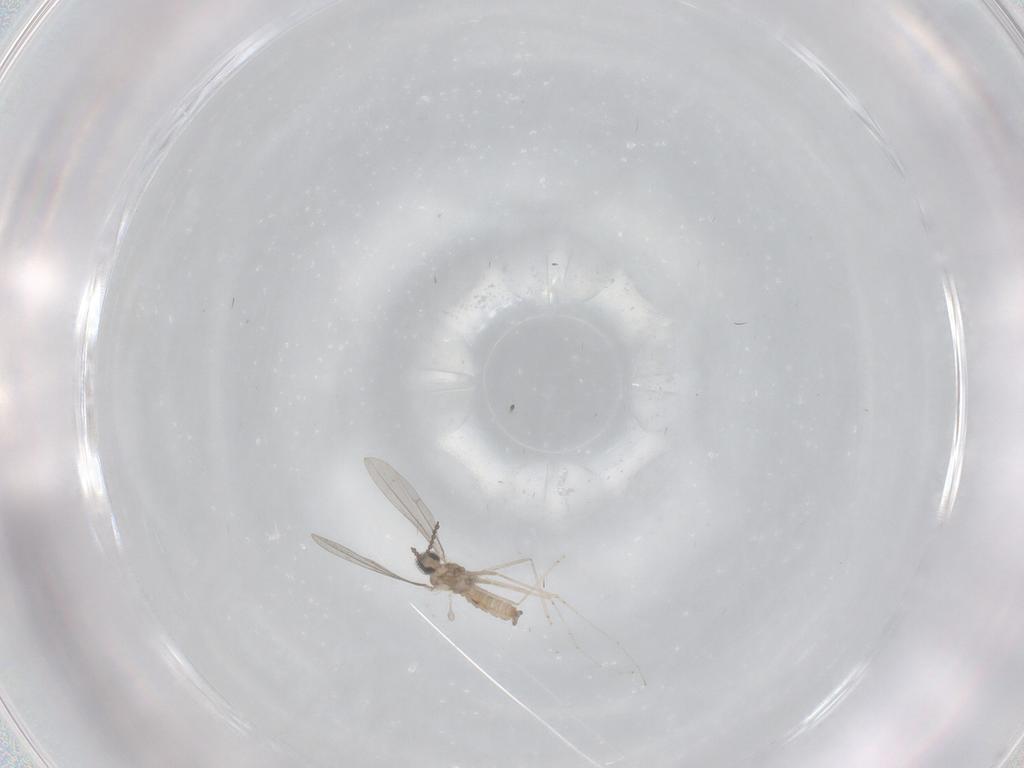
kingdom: Animalia
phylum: Arthropoda
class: Insecta
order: Diptera
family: Cecidomyiidae
